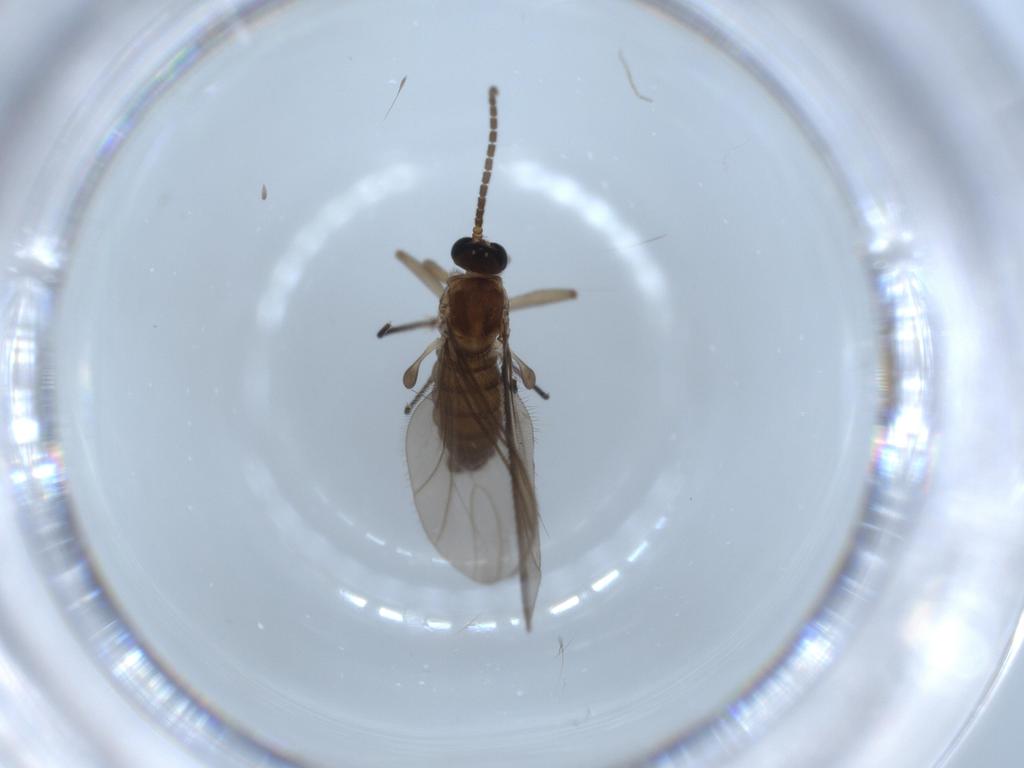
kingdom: Animalia
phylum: Arthropoda
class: Insecta
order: Diptera
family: Sciaridae
